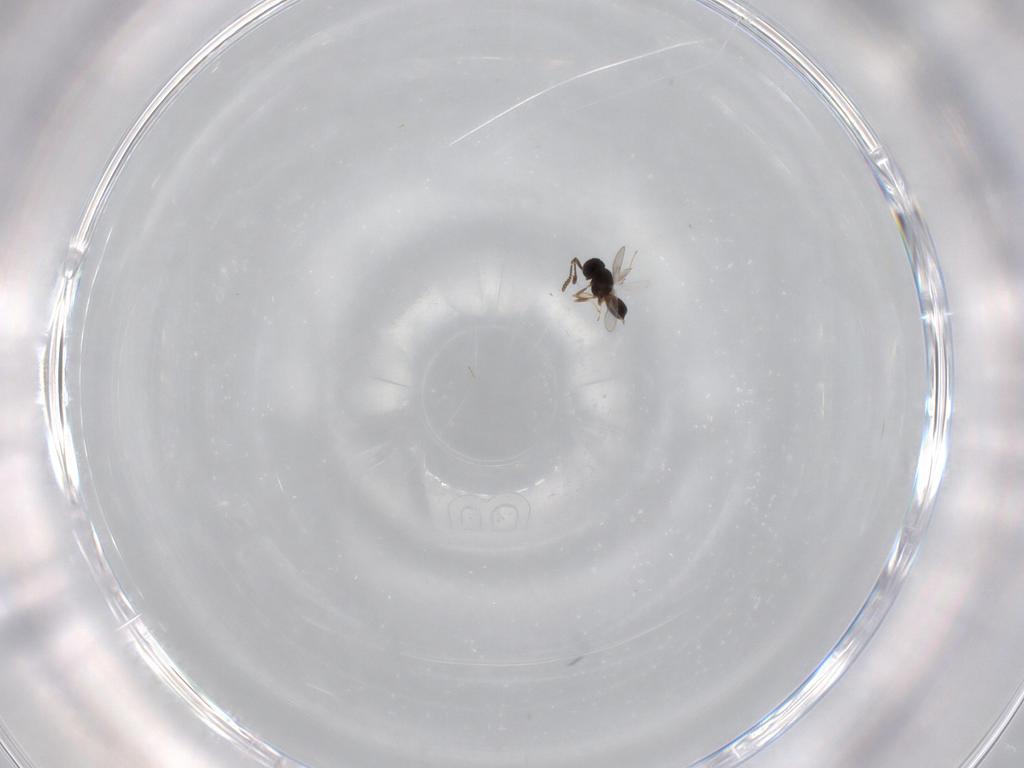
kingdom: Animalia
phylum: Arthropoda
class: Insecta
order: Hymenoptera
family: Scelionidae
